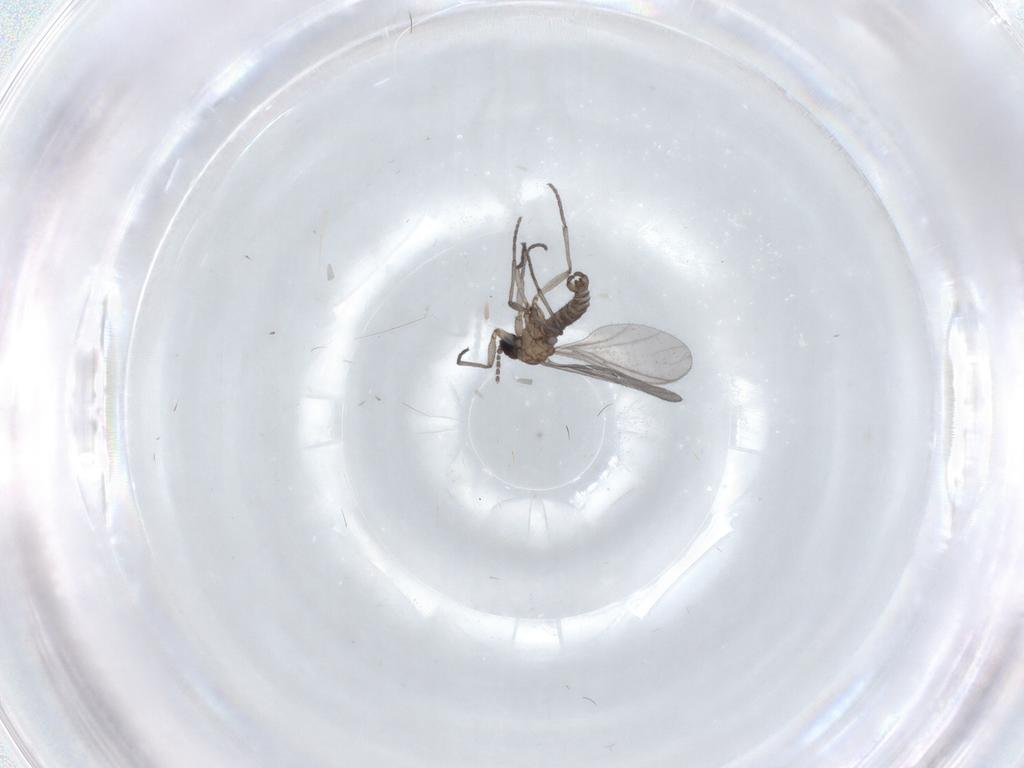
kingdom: Animalia
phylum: Arthropoda
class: Insecta
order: Diptera
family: Sciaridae
